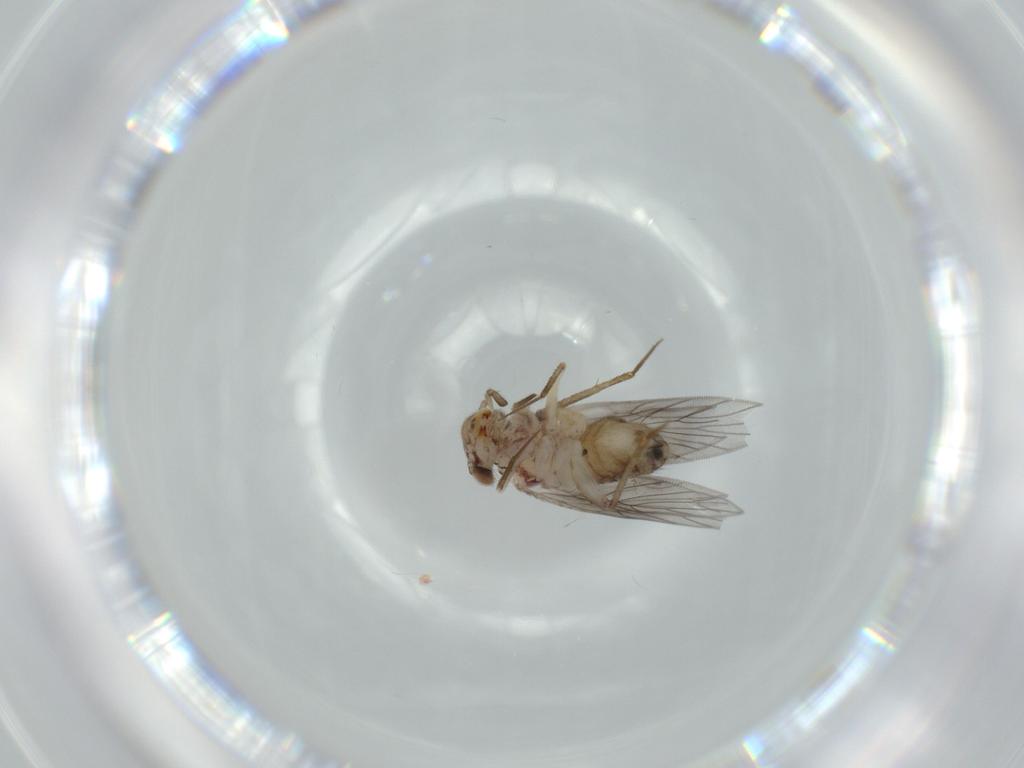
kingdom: Animalia
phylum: Arthropoda
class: Insecta
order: Psocodea
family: Lepidopsocidae
